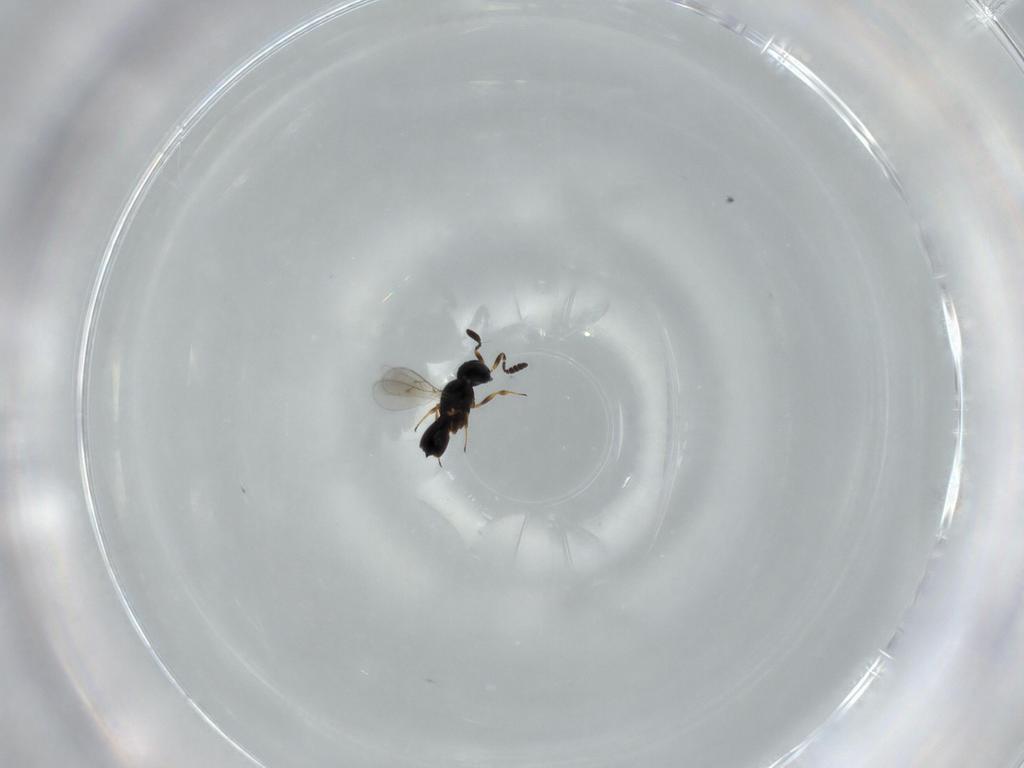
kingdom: Animalia
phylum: Arthropoda
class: Insecta
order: Hymenoptera
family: Scelionidae
